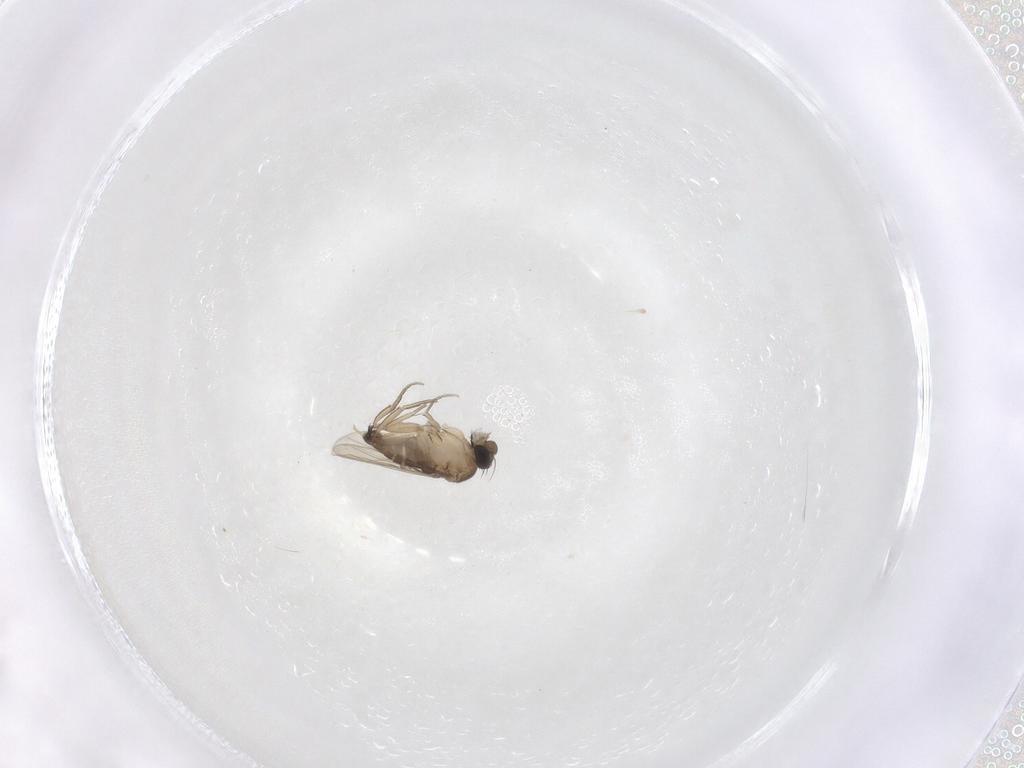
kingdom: Animalia
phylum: Arthropoda
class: Insecta
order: Diptera
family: Phoridae
